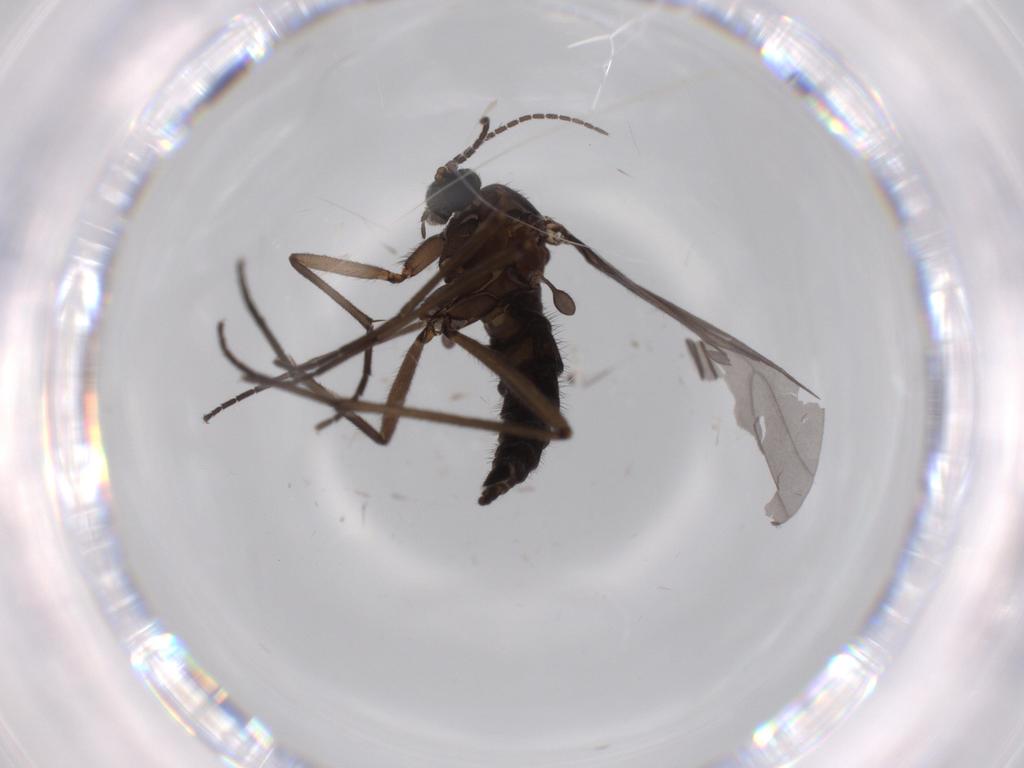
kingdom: Animalia
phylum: Arthropoda
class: Insecta
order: Diptera
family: Sciaridae
